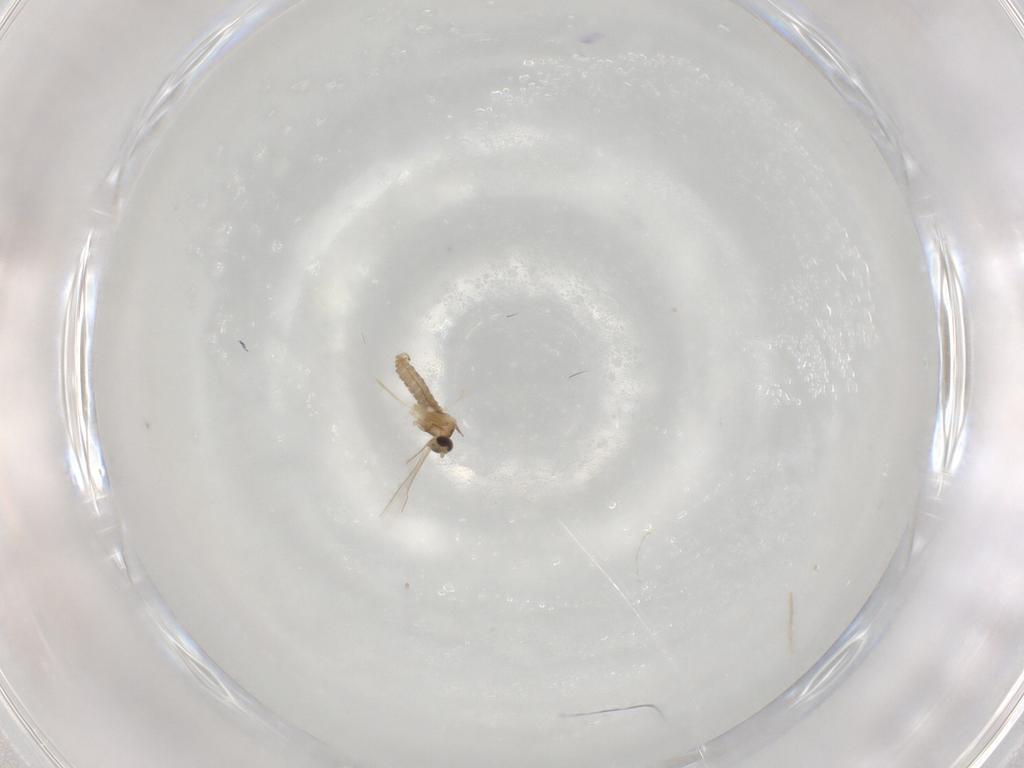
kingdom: Animalia
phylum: Arthropoda
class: Insecta
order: Diptera
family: Cecidomyiidae
